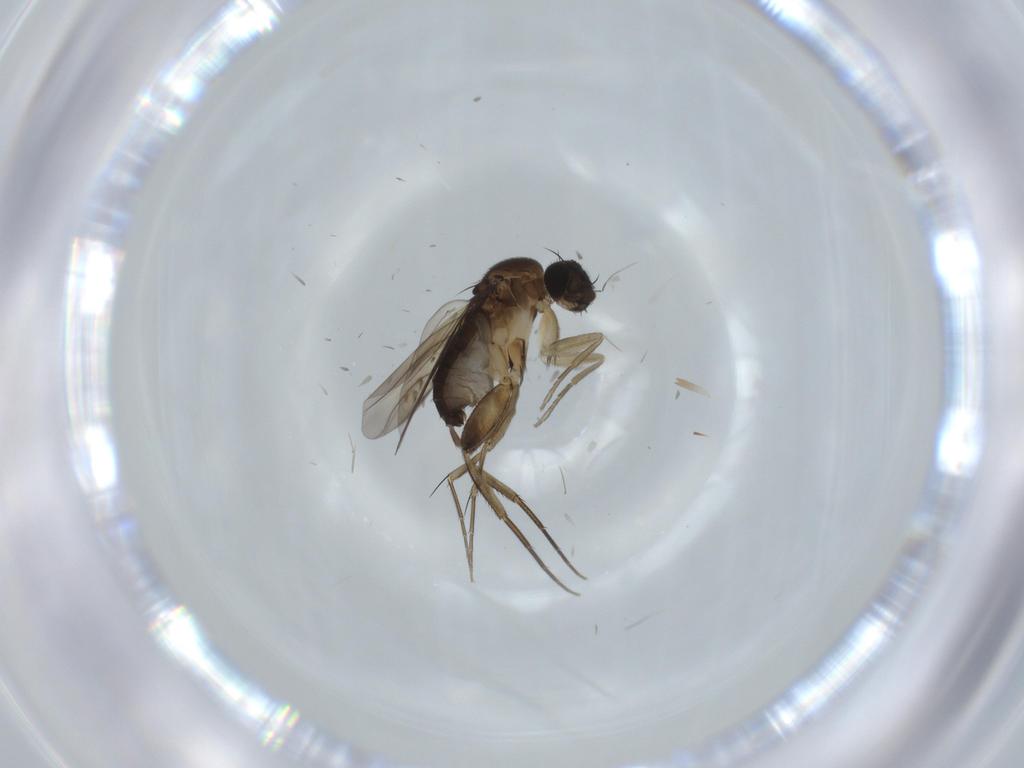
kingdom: Animalia
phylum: Arthropoda
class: Insecta
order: Diptera
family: Phoridae
